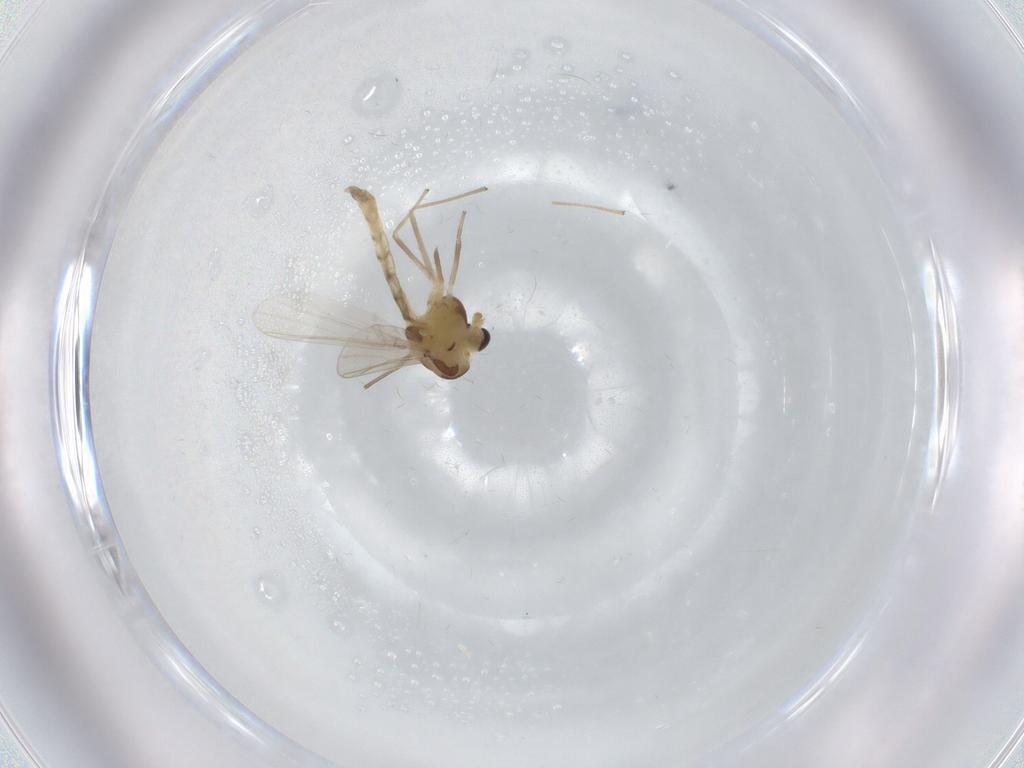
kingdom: Animalia
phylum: Arthropoda
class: Insecta
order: Diptera
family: Chironomidae
